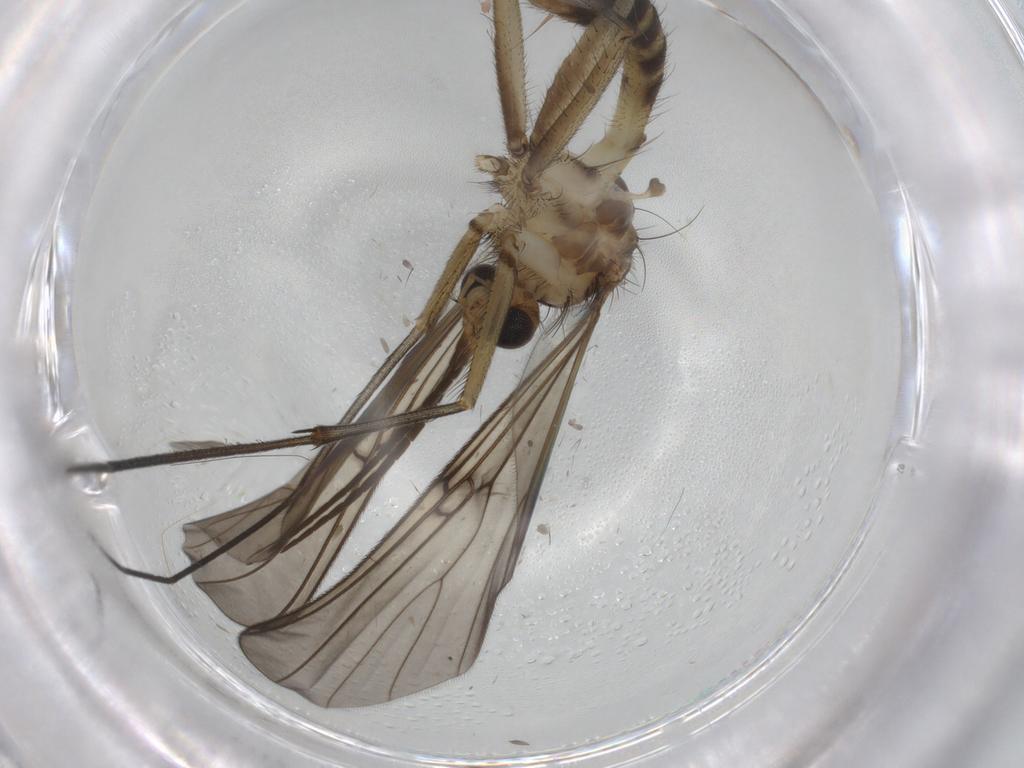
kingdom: Animalia
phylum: Arthropoda
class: Insecta
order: Diptera
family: Mycetophilidae
